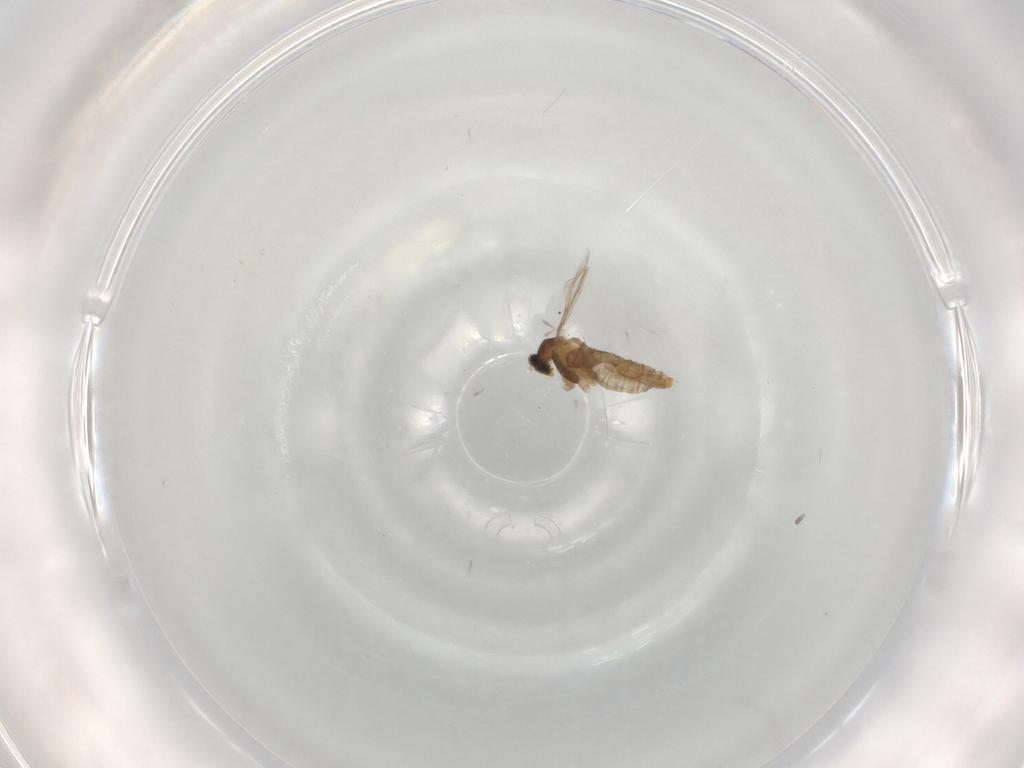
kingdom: Animalia
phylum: Arthropoda
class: Insecta
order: Diptera
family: Cecidomyiidae
